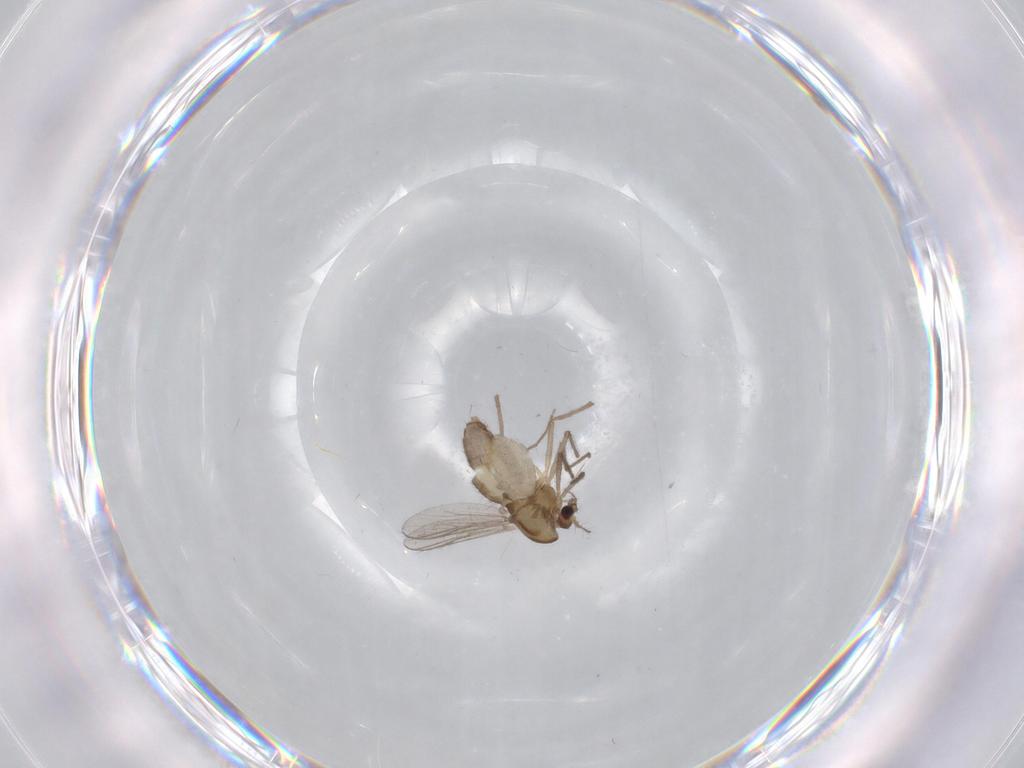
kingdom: Animalia
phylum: Arthropoda
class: Insecta
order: Diptera
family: Chironomidae
